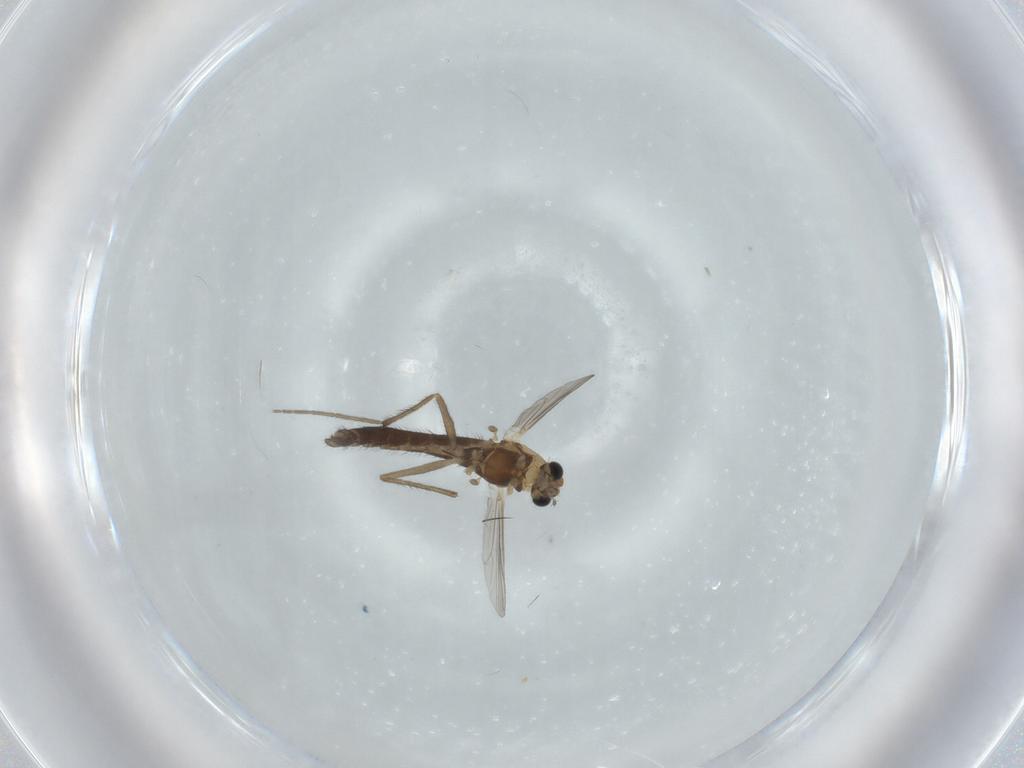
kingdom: Animalia
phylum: Arthropoda
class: Insecta
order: Diptera
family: Chironomidae
